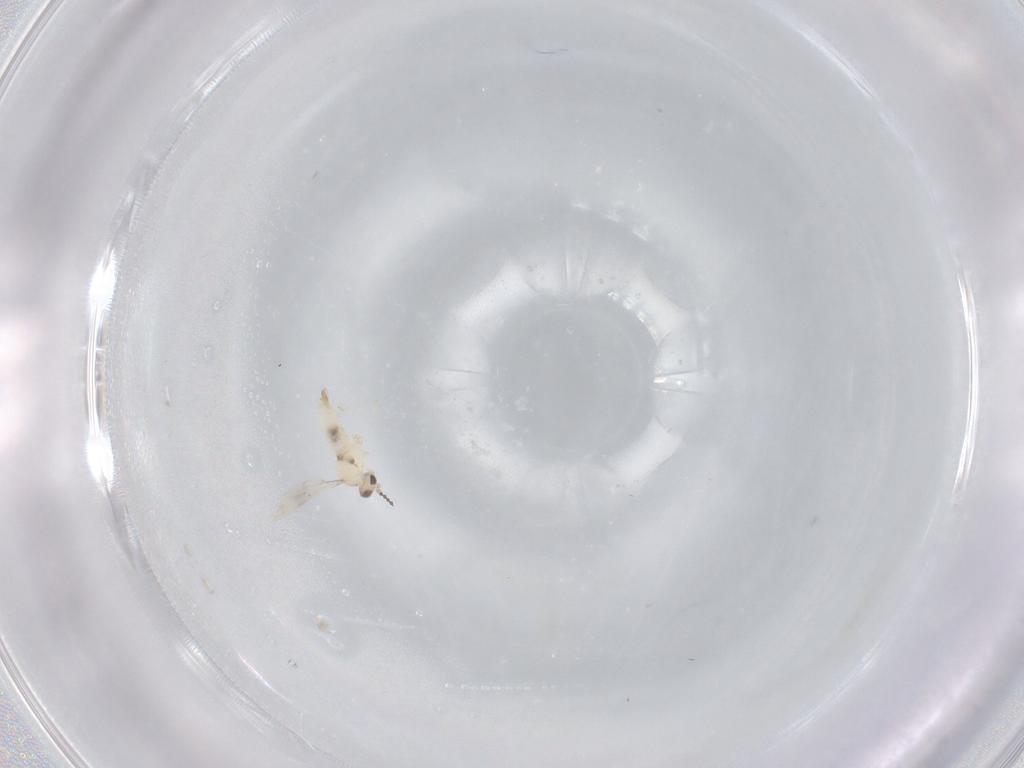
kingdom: Animalia
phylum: Arthropoda
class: Insecta
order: Diptera
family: Cecidomyiidae
